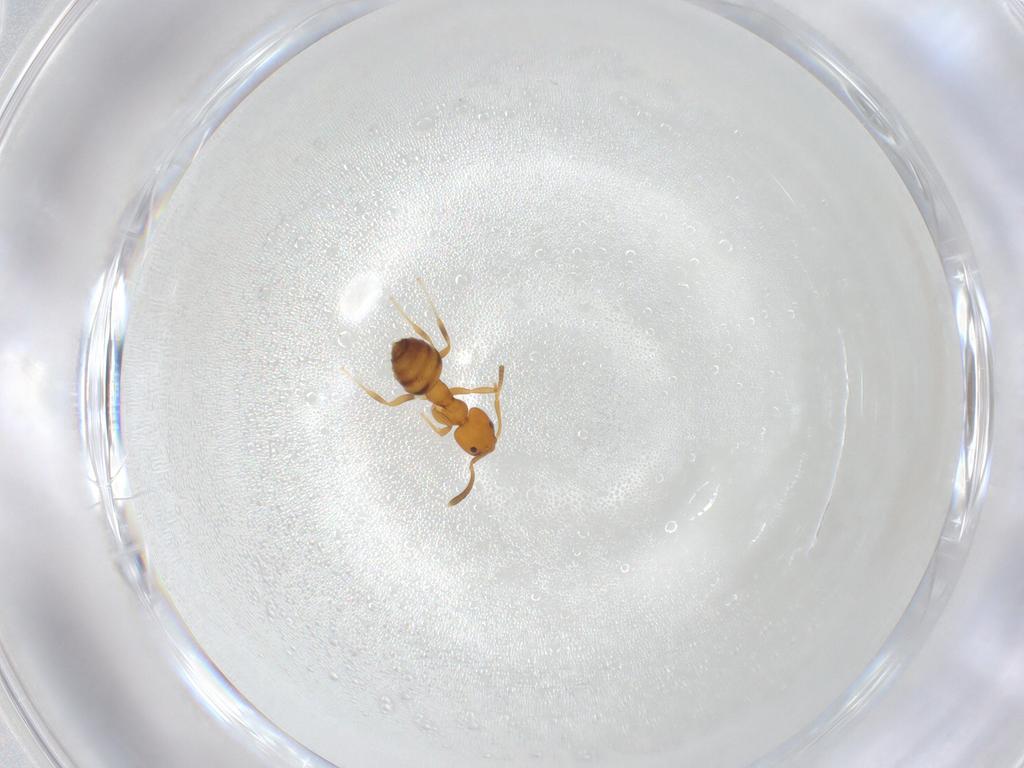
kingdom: Animalia
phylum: Arthropoda
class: Insecta
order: Hymenoptera
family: Formicidae
